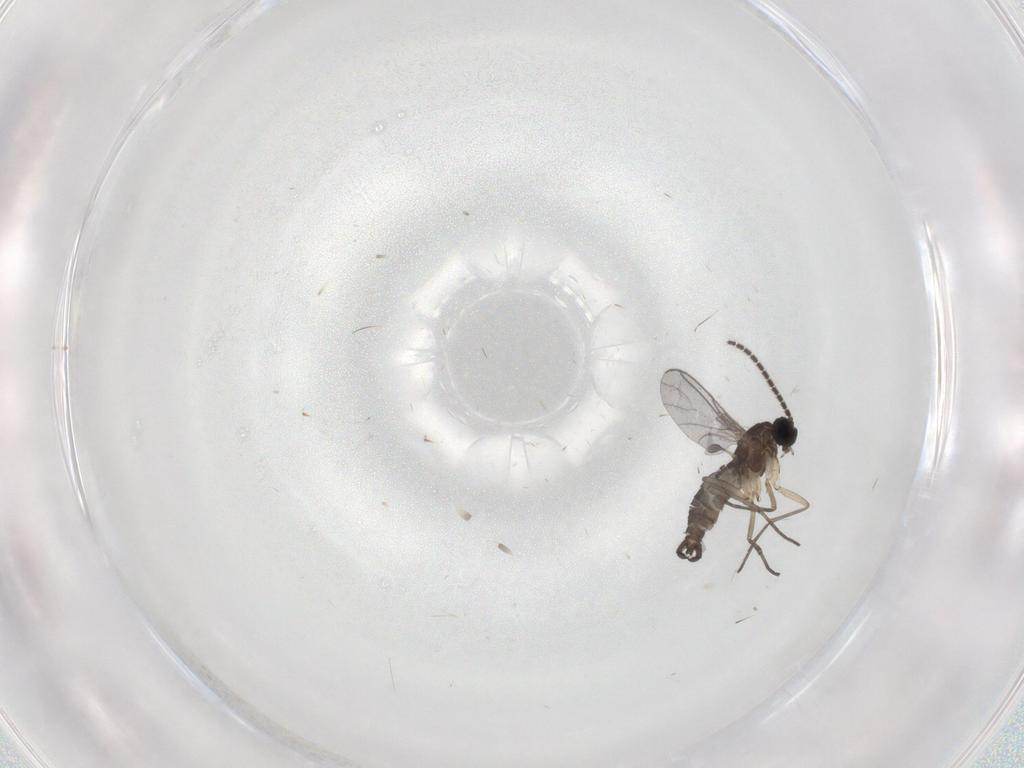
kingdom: Animalia
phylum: Arthropoda
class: Insecta
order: Diptera
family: Sciaridae
